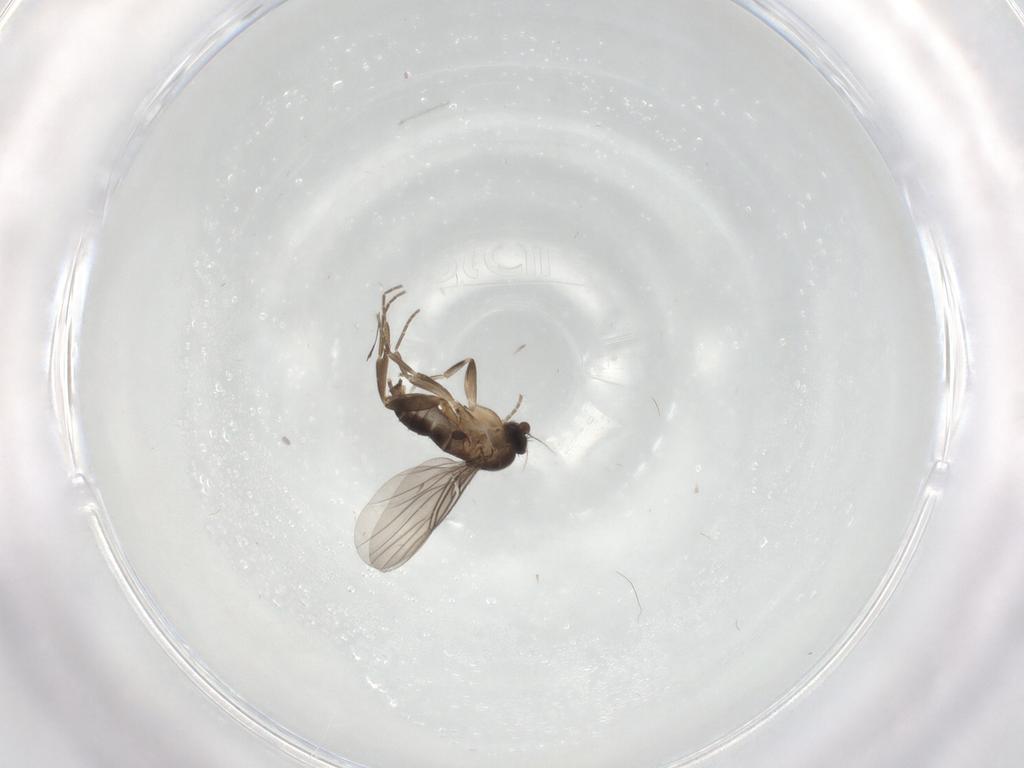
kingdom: Animalia
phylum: Arthropoda
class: Insecta
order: Diptera
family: Phoridae
